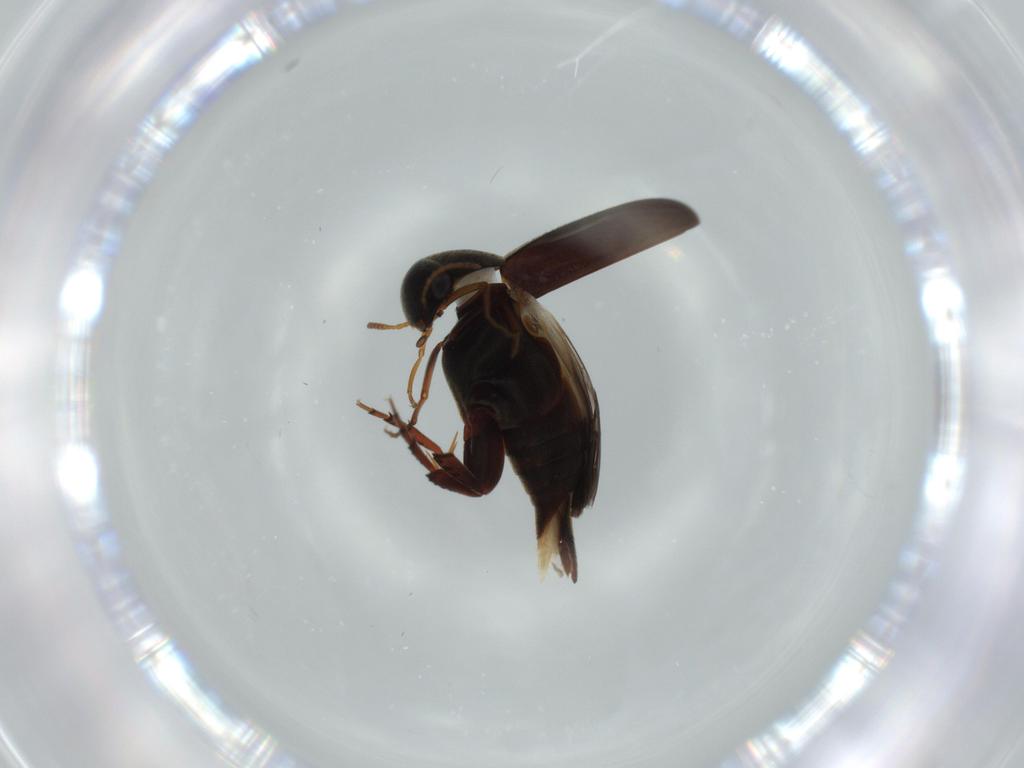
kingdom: Animalia
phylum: Arthropoda
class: Insecta
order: Coleoptera
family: Mordellidae
